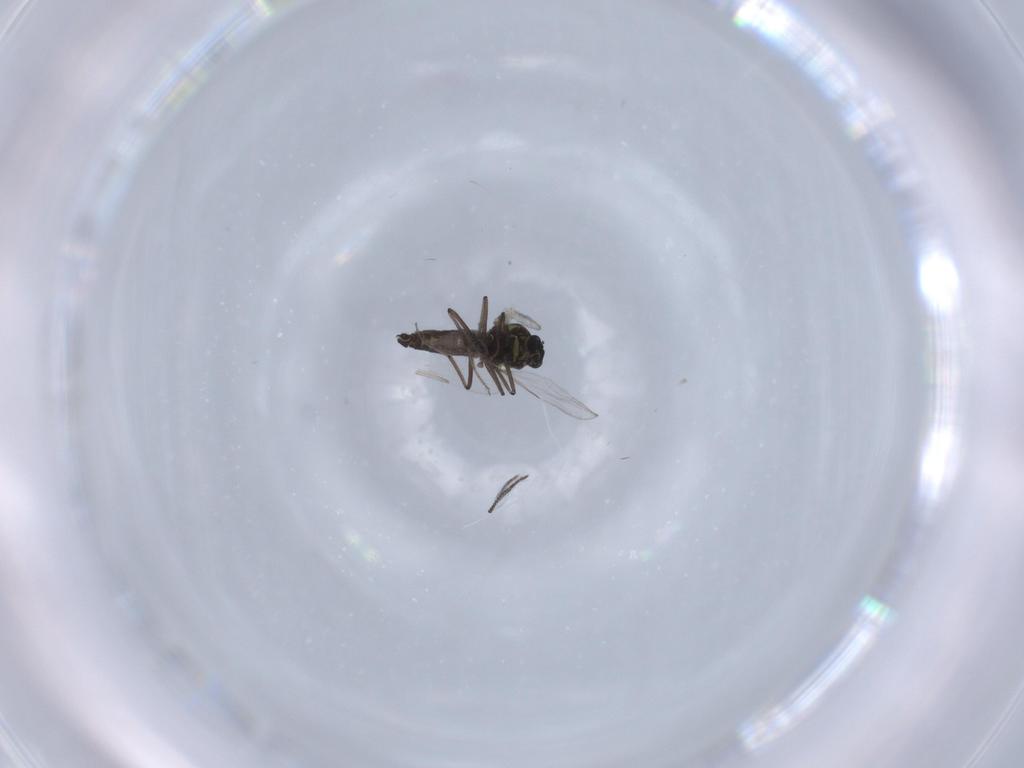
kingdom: Animalia
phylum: Arthropoda
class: Insecta
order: Diptera
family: Ceratopogonidae
